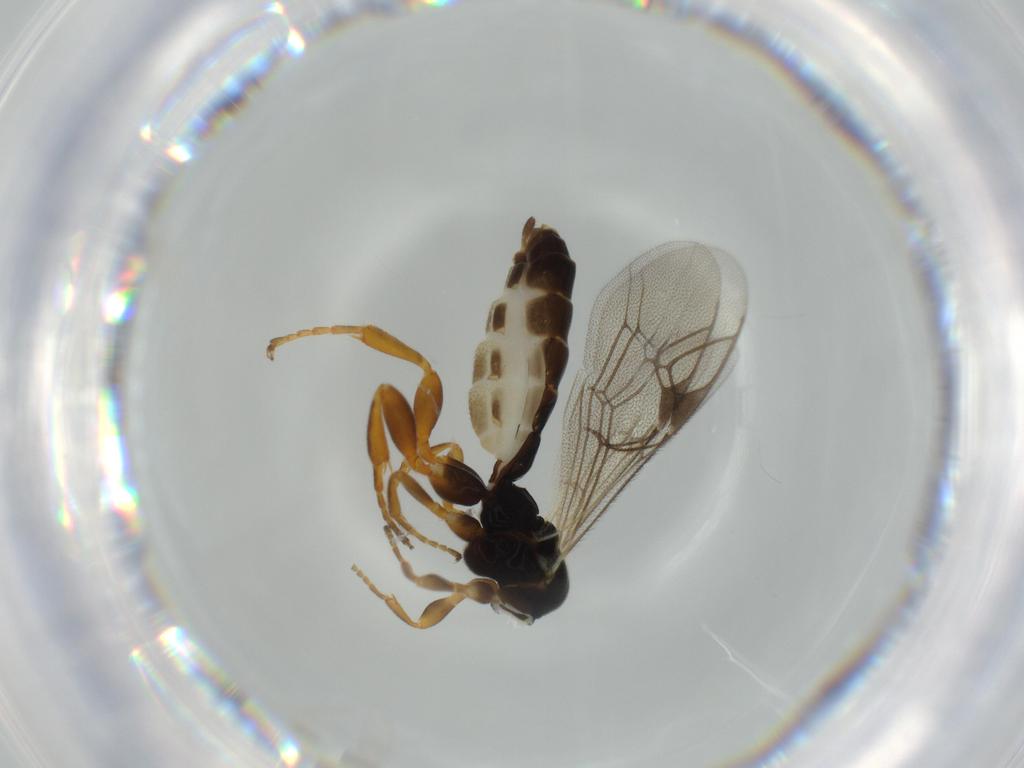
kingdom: Animalia
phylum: Arthropoda
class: Insecta
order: Hymenoptera
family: Ichneumonidae
